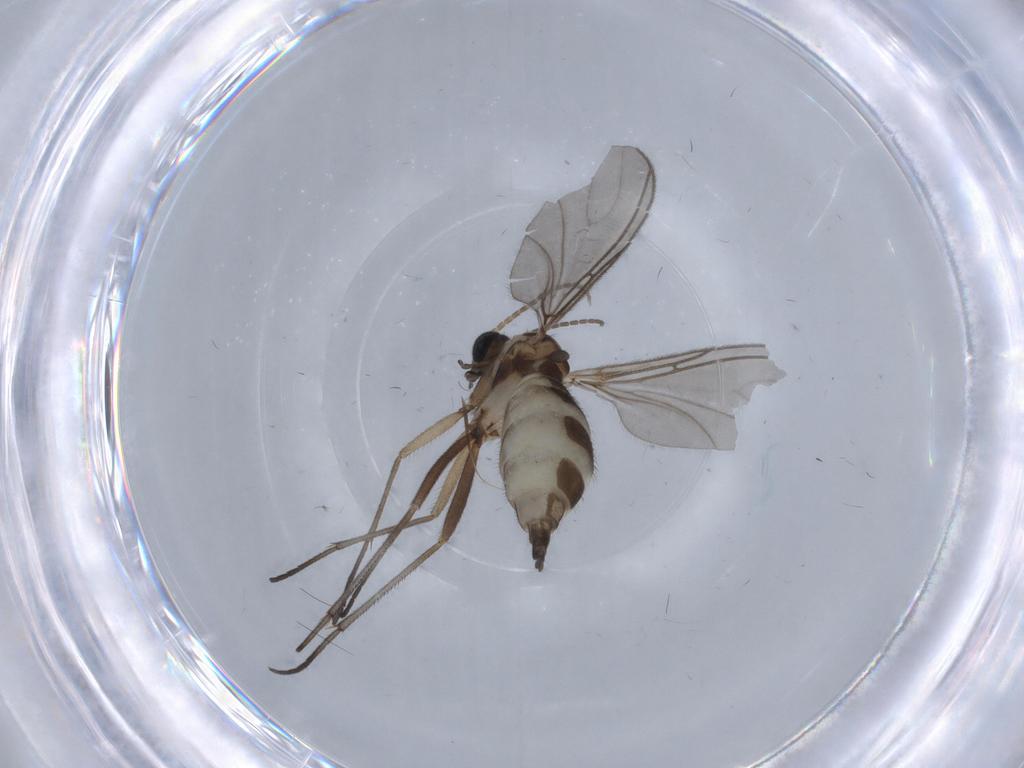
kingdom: Animalia
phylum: Arthropoda
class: Insecta
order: Diptera
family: Sciaridae
